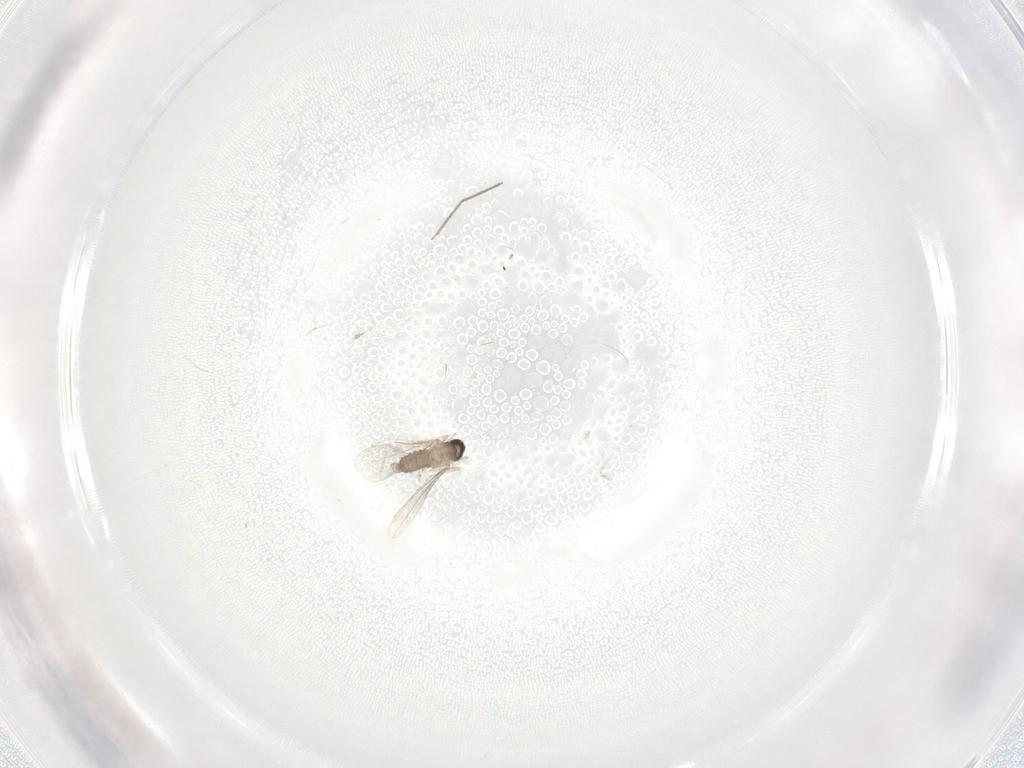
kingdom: Animalia
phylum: Arthropoda
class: Insecta
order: Diptera
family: Cecidomyiidae
